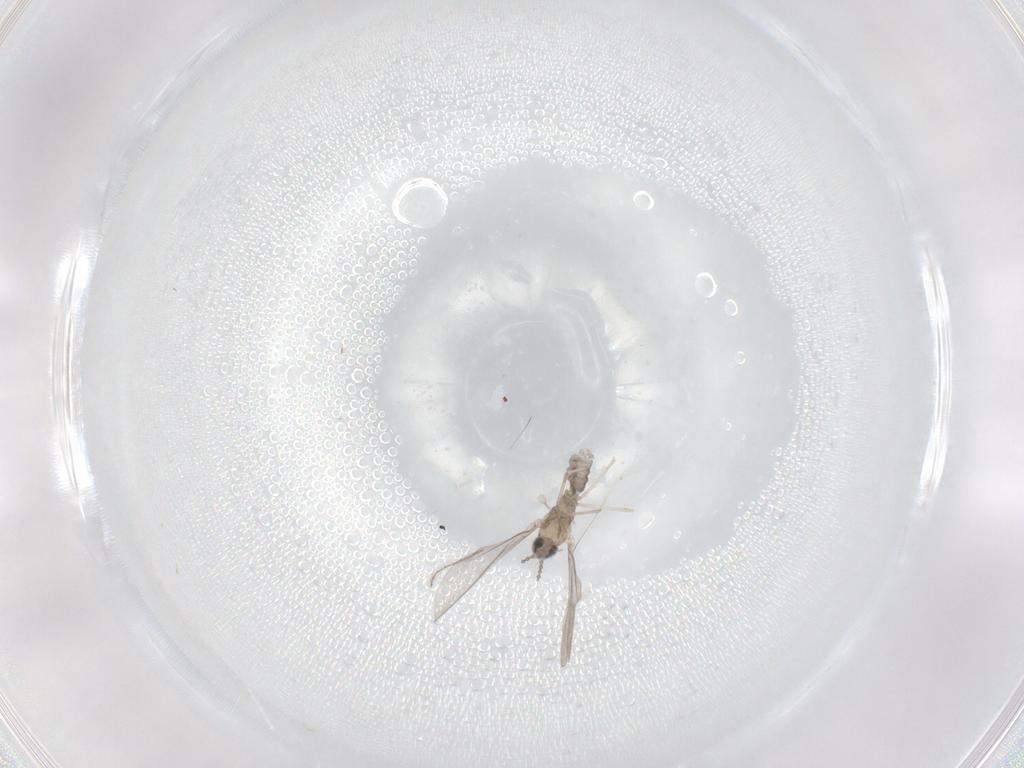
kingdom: Animalia
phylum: Arthropoda
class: Insecta
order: Diptera
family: Cecidomyiidae
